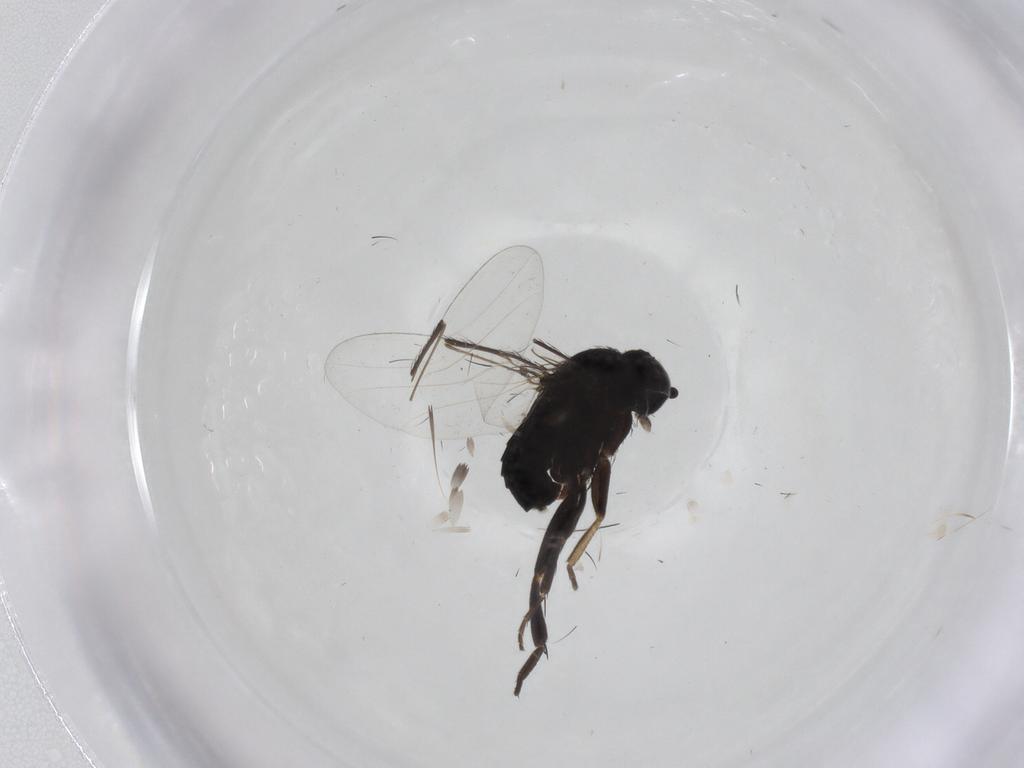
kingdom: Animalia
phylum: Arthropoda
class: Insecta
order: Diptera
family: Phoridae
